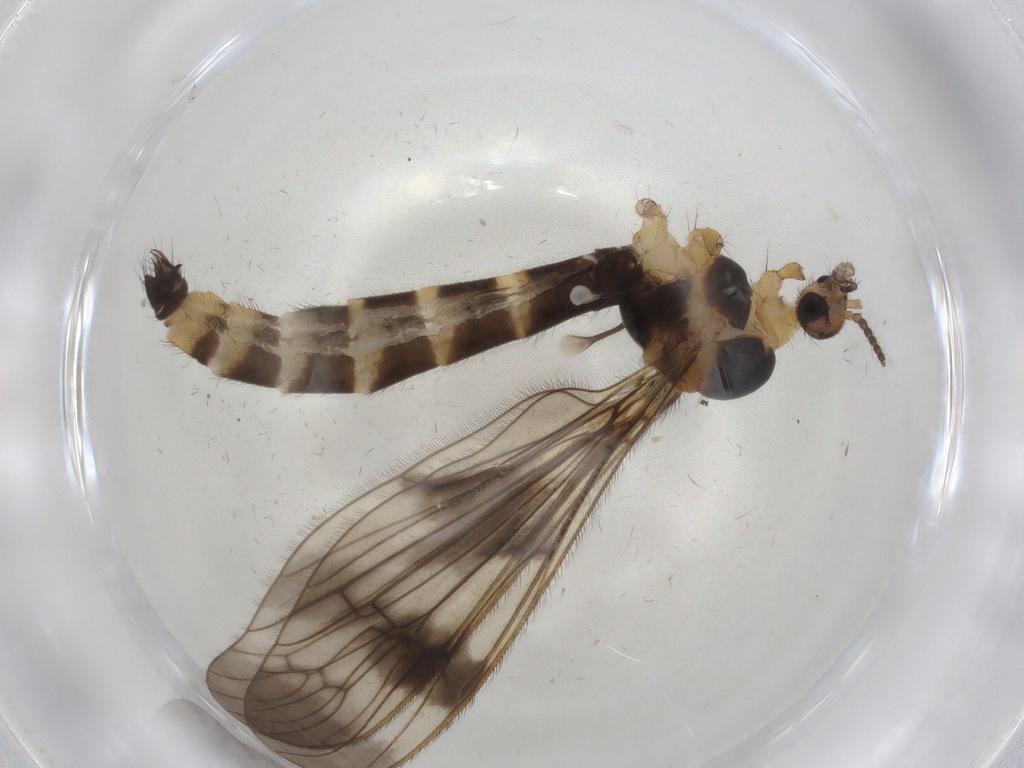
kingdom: Animalia
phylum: Arthropoda
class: Insecta
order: Diptera
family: Limoniidae
